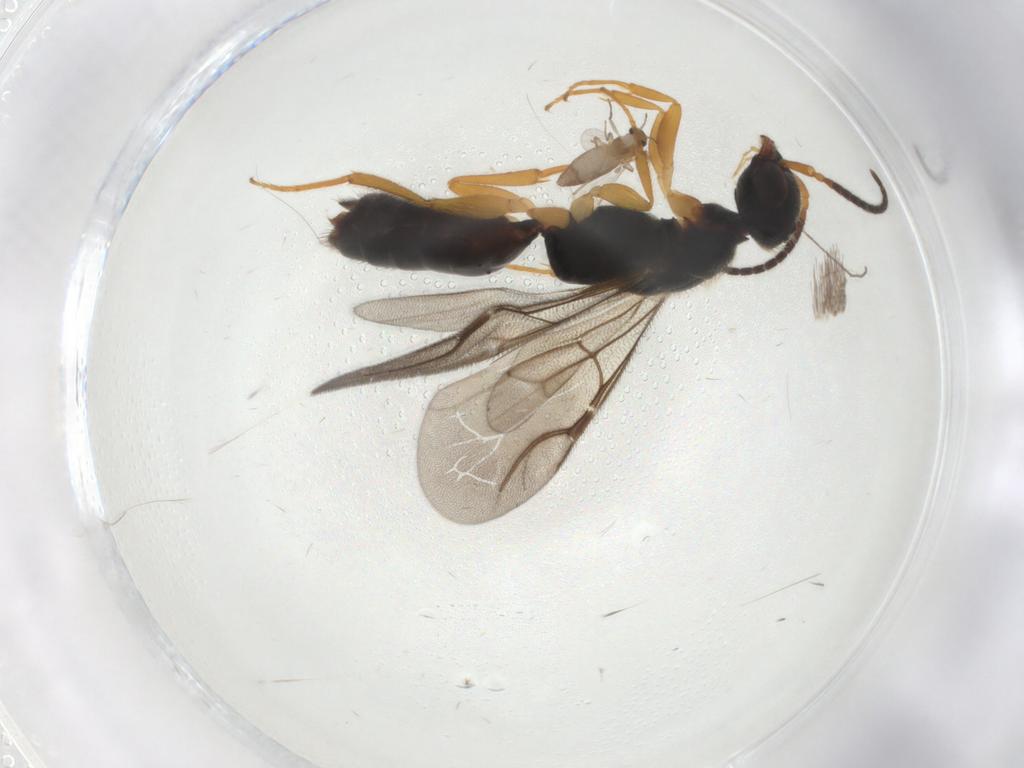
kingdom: Animalia
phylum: Arthropoda
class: Insecta
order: Hymenoptera
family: Bethylidae
